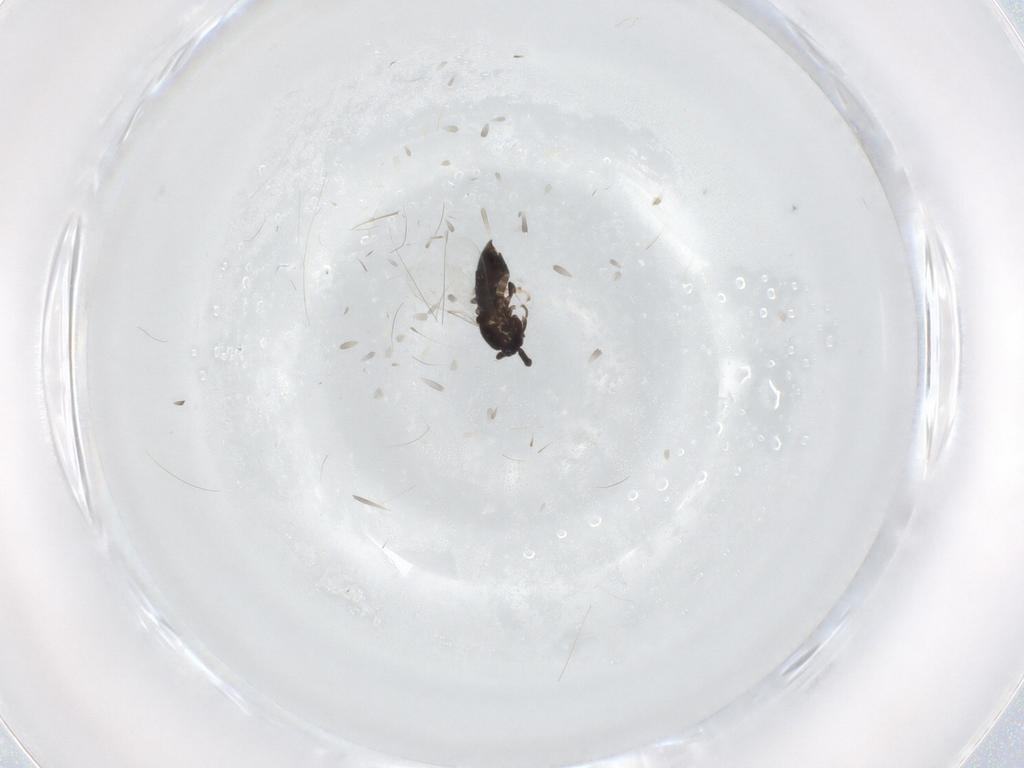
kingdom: Animalia
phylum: Arthropoda
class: Insecta
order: Diptera
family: Scatopsidae
